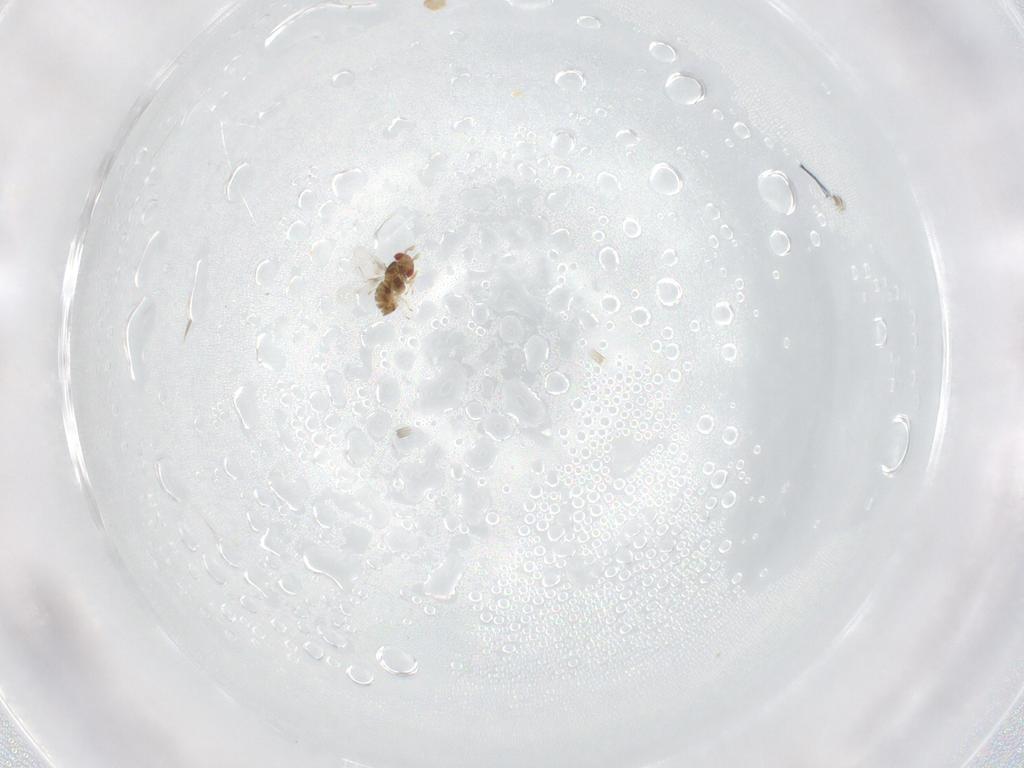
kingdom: Animalia
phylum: Arthropoda
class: Insecta
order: Hymenoptera
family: Trichogrammatidae
